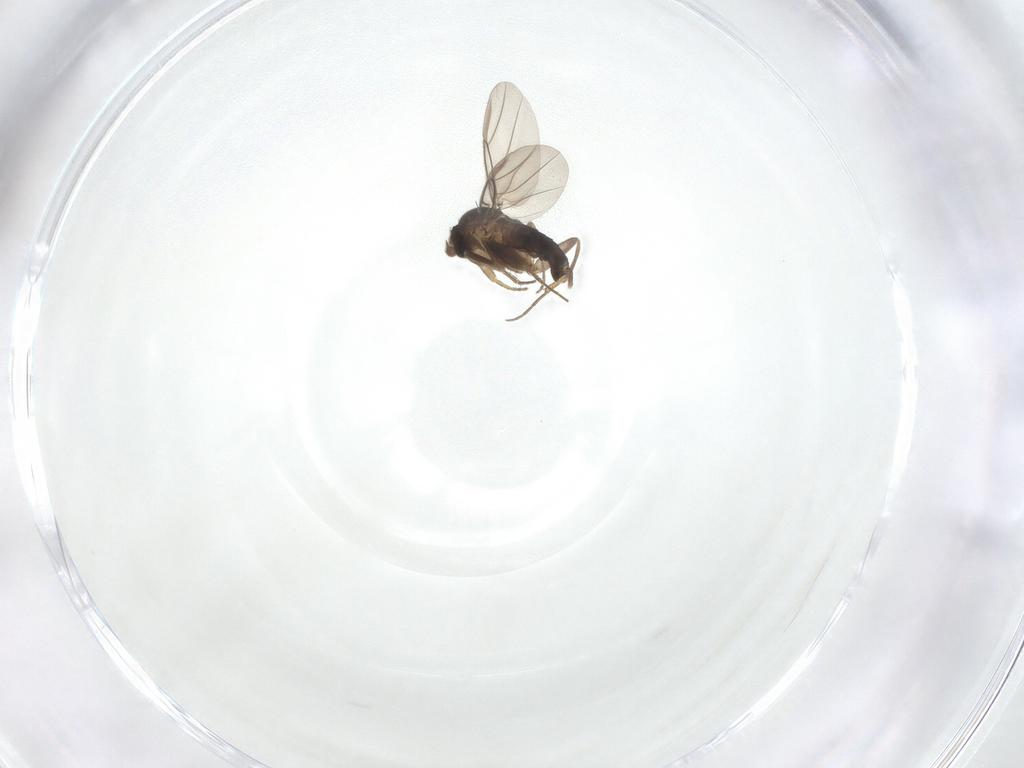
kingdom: Animalia
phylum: Arthropoda
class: Insecta
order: Diptera
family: Phoridae
